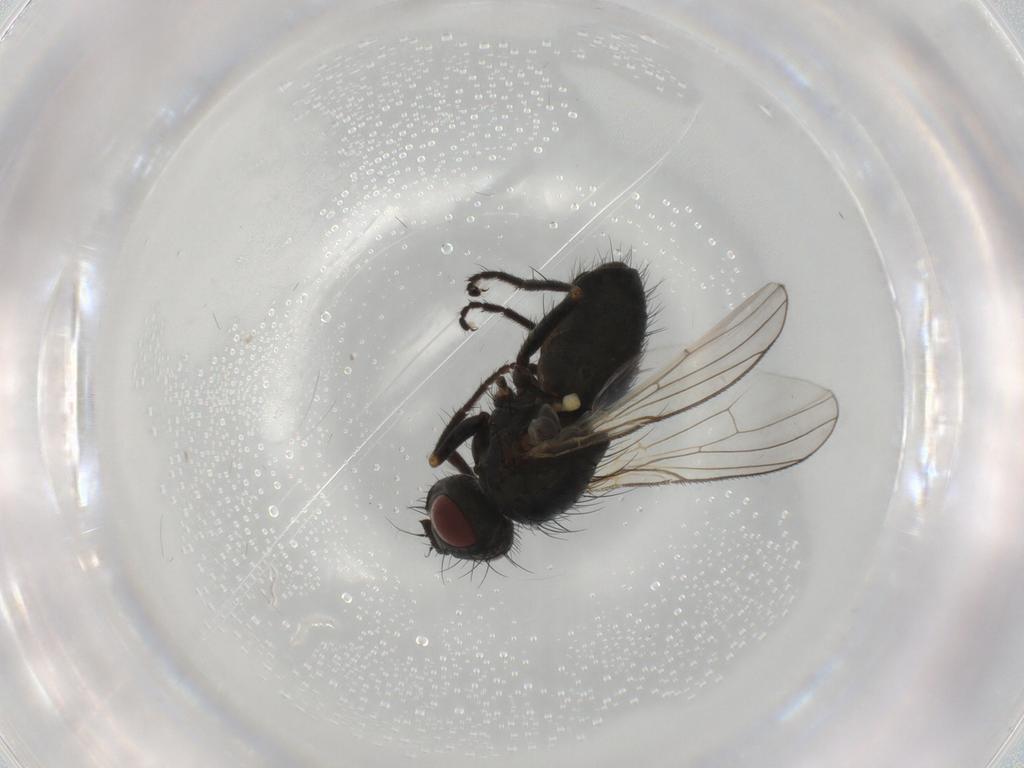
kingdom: Animalia
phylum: Arthropoda
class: Insecta
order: Diptera
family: Muscidae
